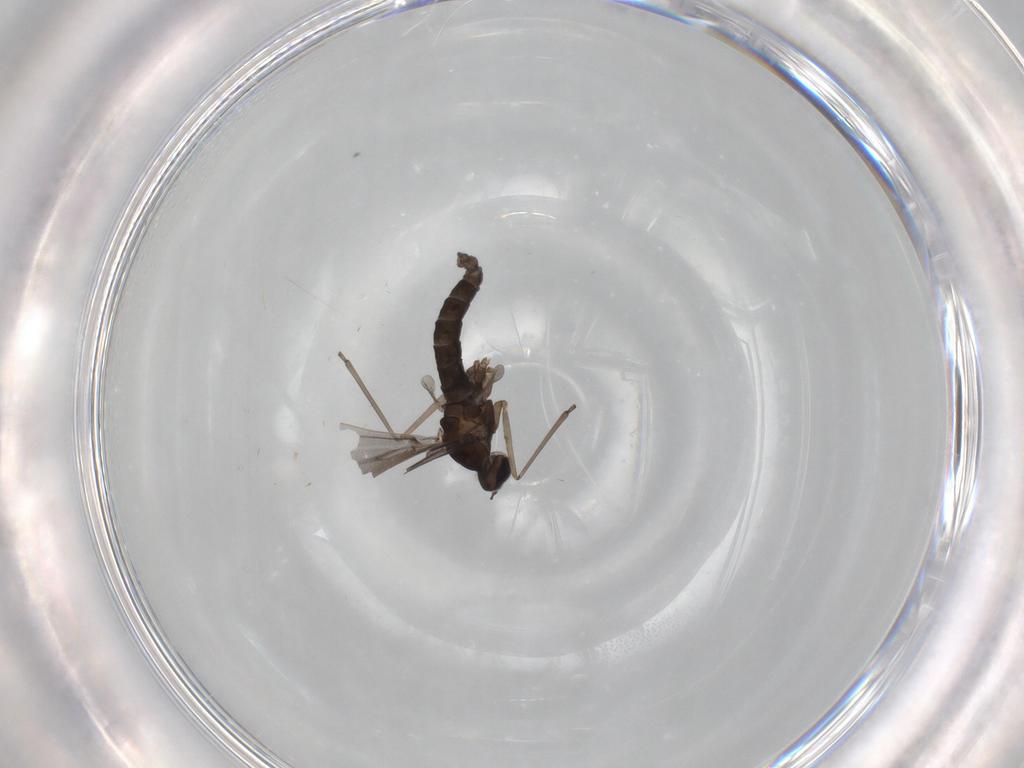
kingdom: Animalia
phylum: Arthropoda
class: Insecta
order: Diptera
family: Cecidomyiidae
